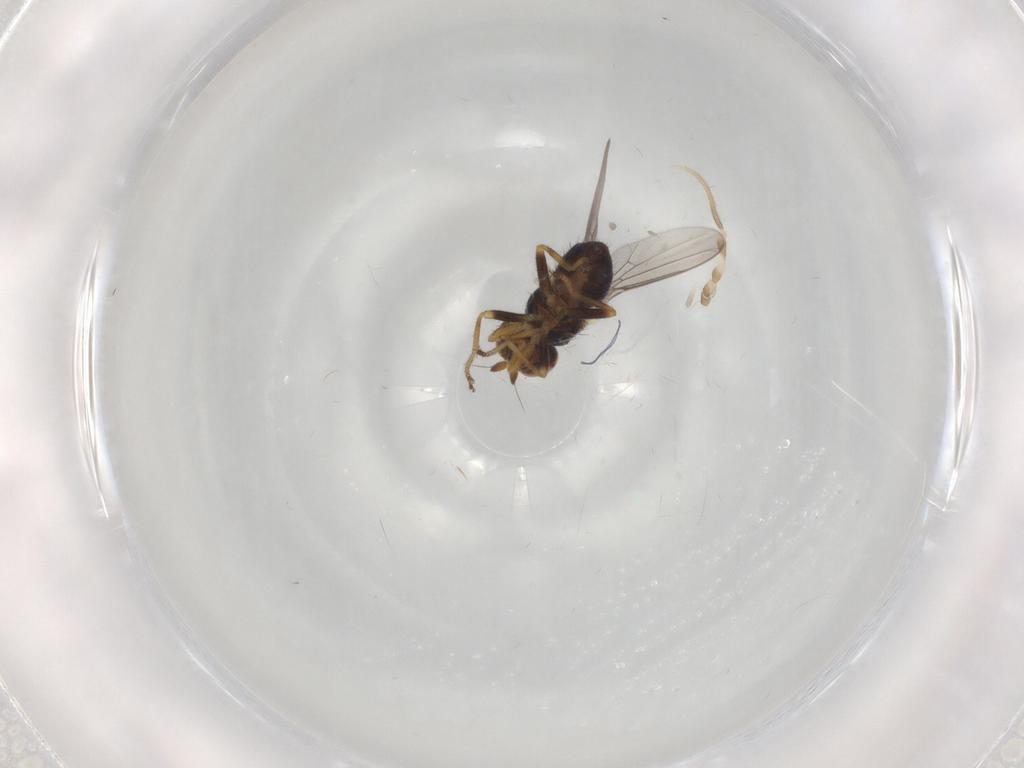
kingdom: Animalia
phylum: Arthropoda
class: Insecta
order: Diptera
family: Chloropidae
